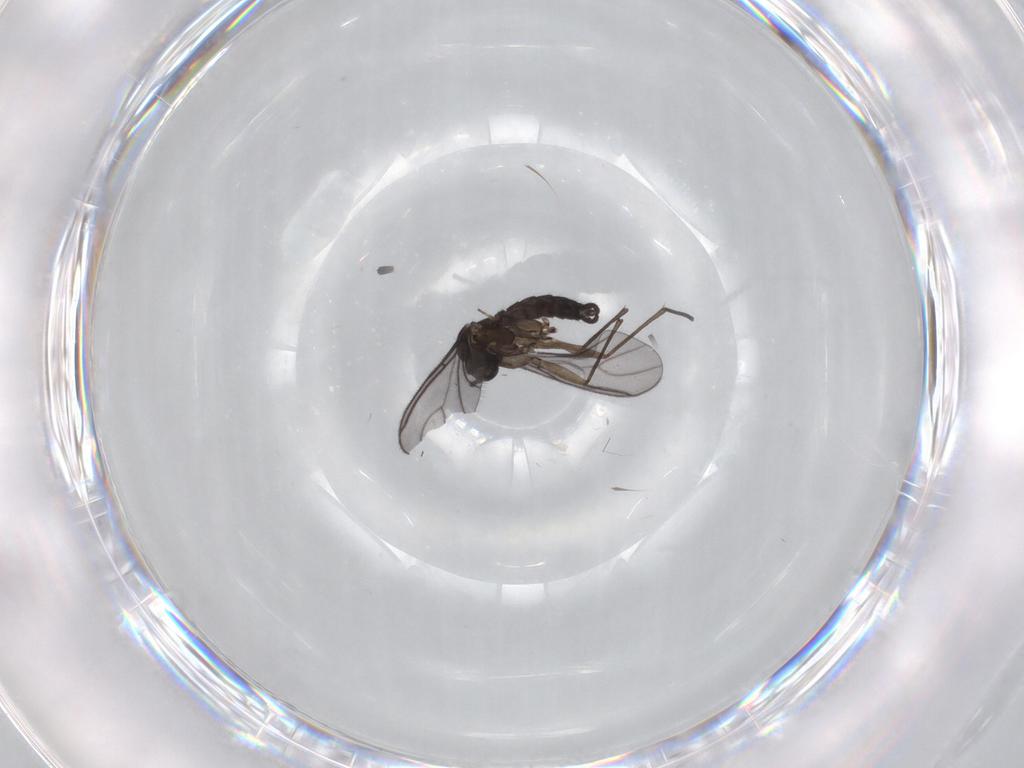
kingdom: Animalia
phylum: Arthropoda
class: Insecta
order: Diptera
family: Sciaridae
